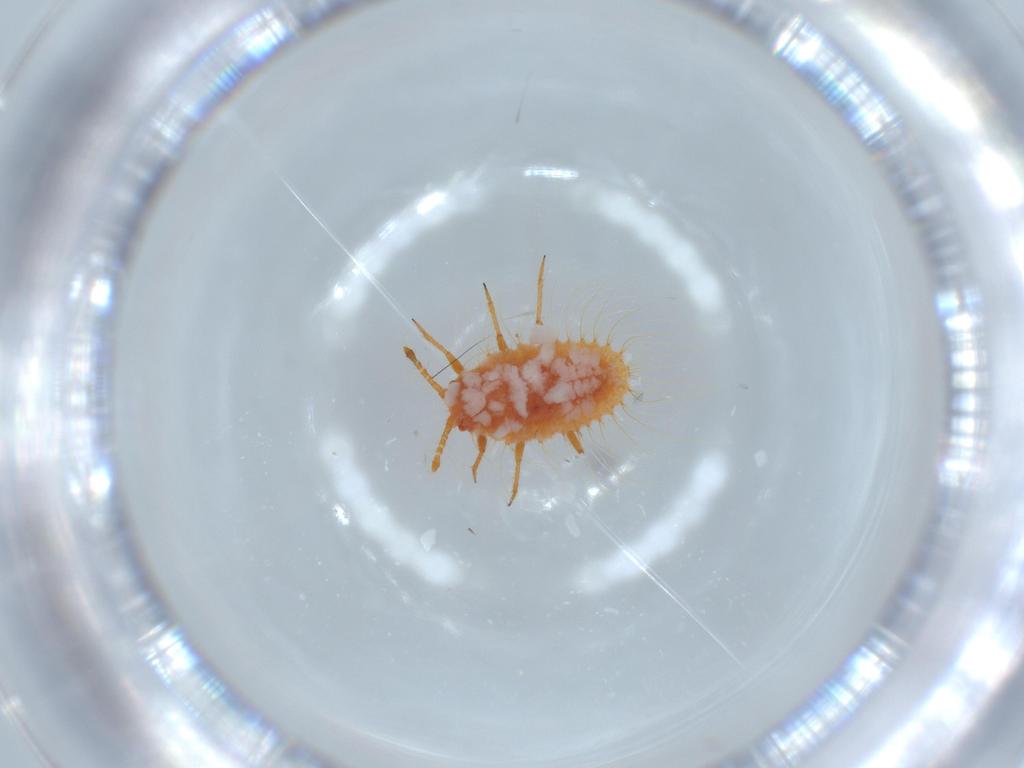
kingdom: Animalia
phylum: Arthropoda
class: Insecta
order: Hemiptera
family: Coccoidea_incertae_sedis
